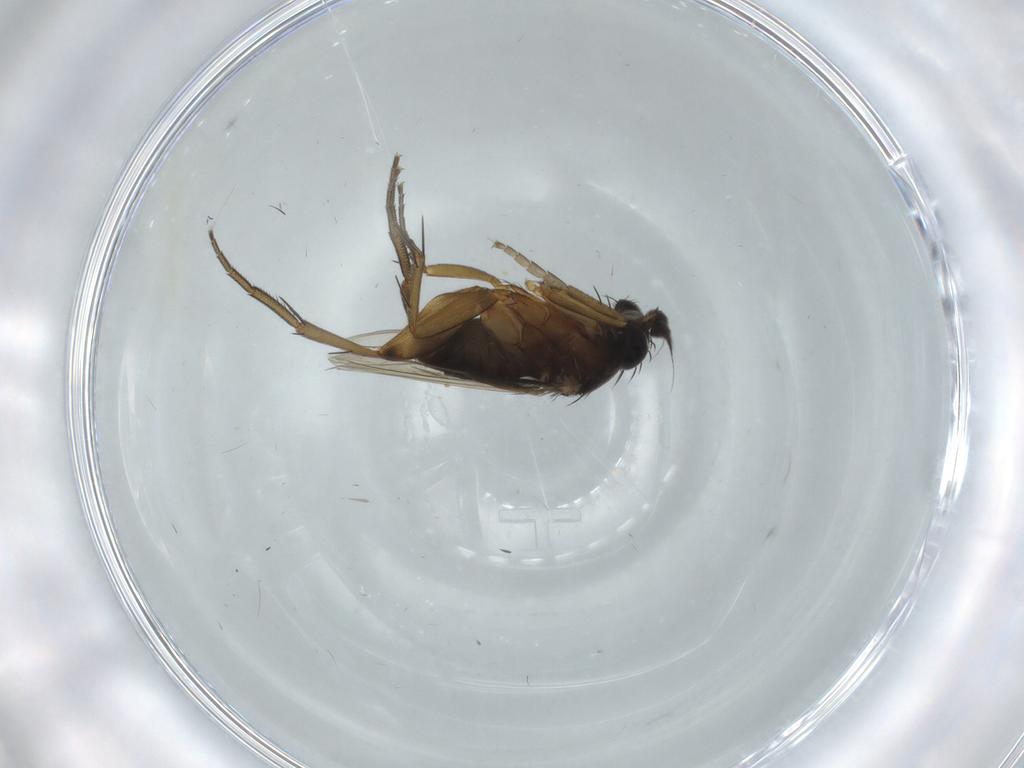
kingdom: Animalia
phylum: Arthropoda
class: Insecta
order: Diptera
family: Phoridae
